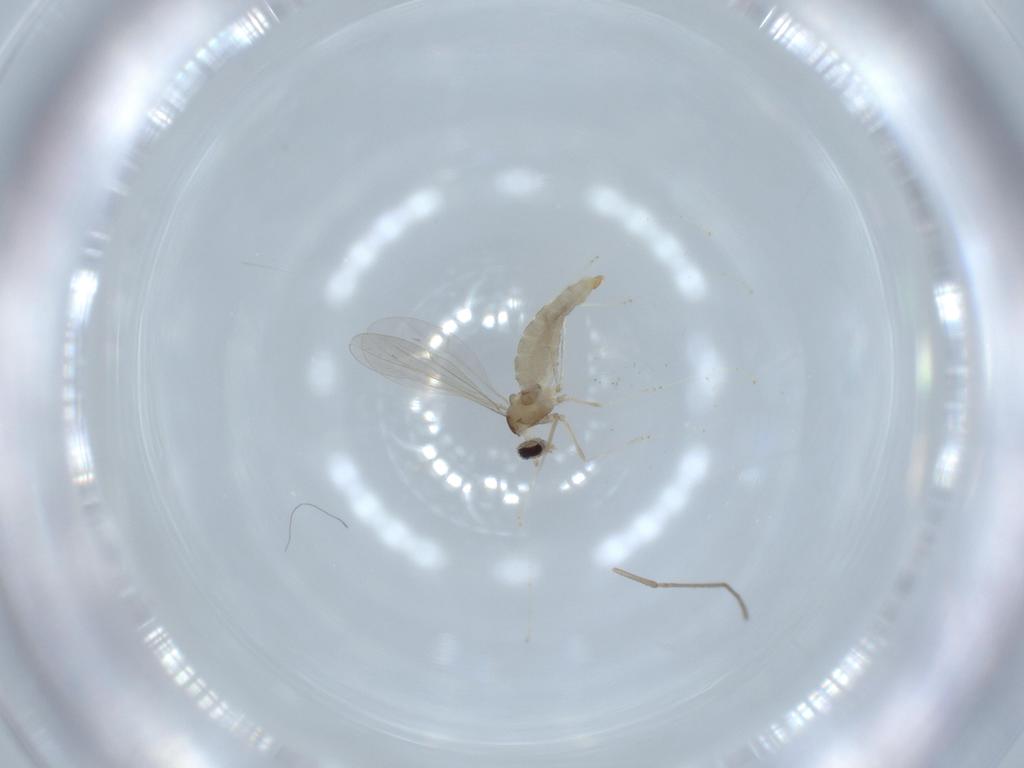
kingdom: Animalia
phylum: Arthropoda
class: Insecta
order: Diptera
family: Cecidomyiidae
